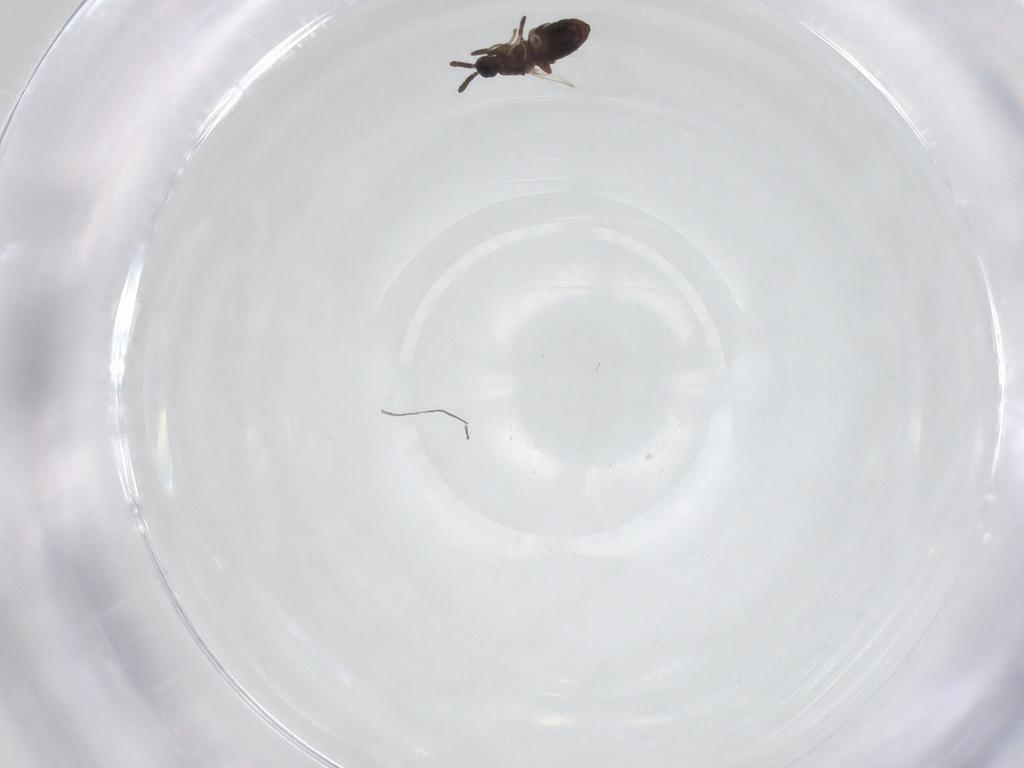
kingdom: Animalia
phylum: Arthropoda
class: Insecta
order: Diptera
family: Scatopsidae
